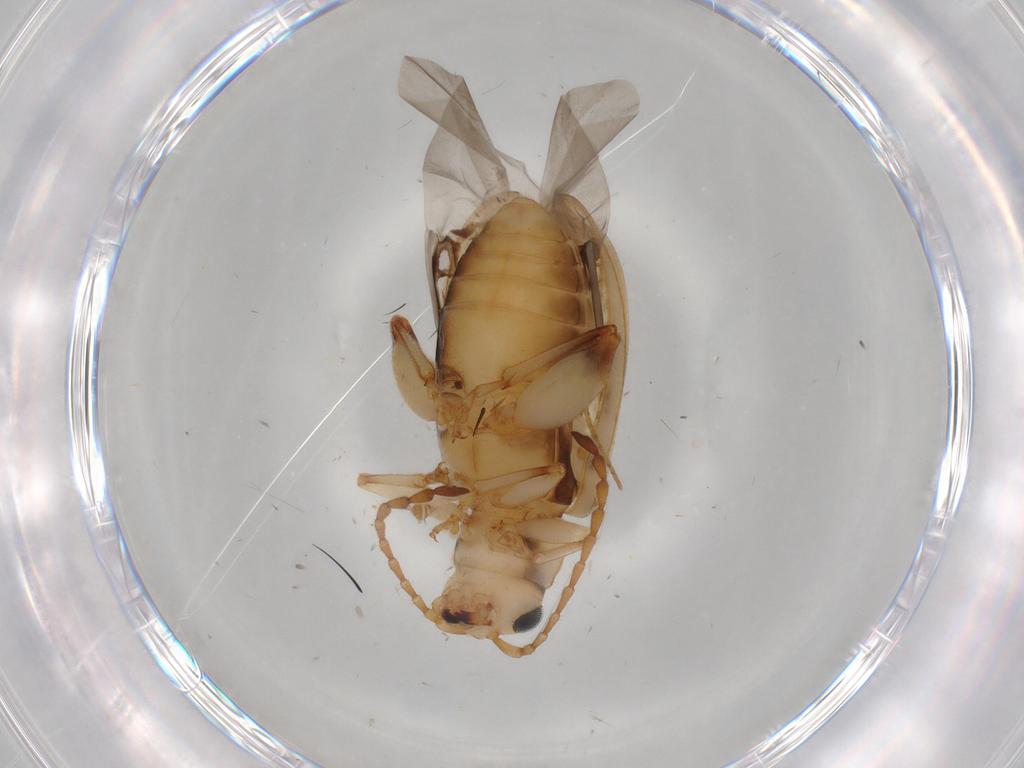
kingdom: Animalia
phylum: Arthropoda
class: Insecta
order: Coleoptera
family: Chrysomelidae
